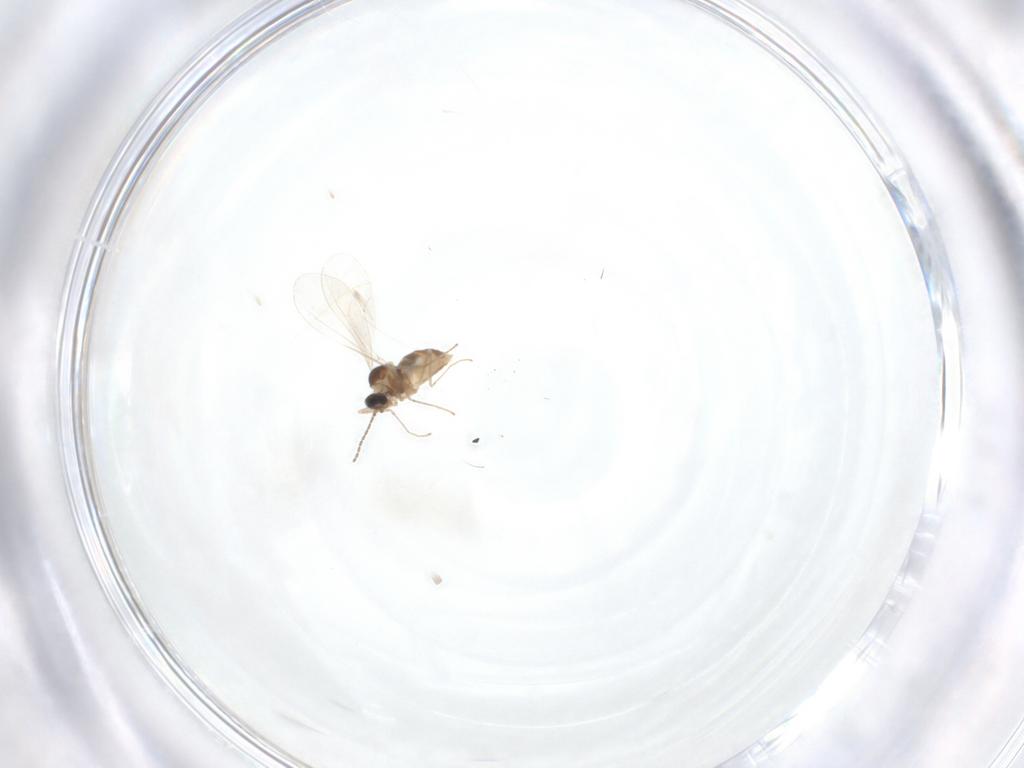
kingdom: Animalia
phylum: Arthropoda
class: Insecta
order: Diptera
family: Cecidomyiidae
